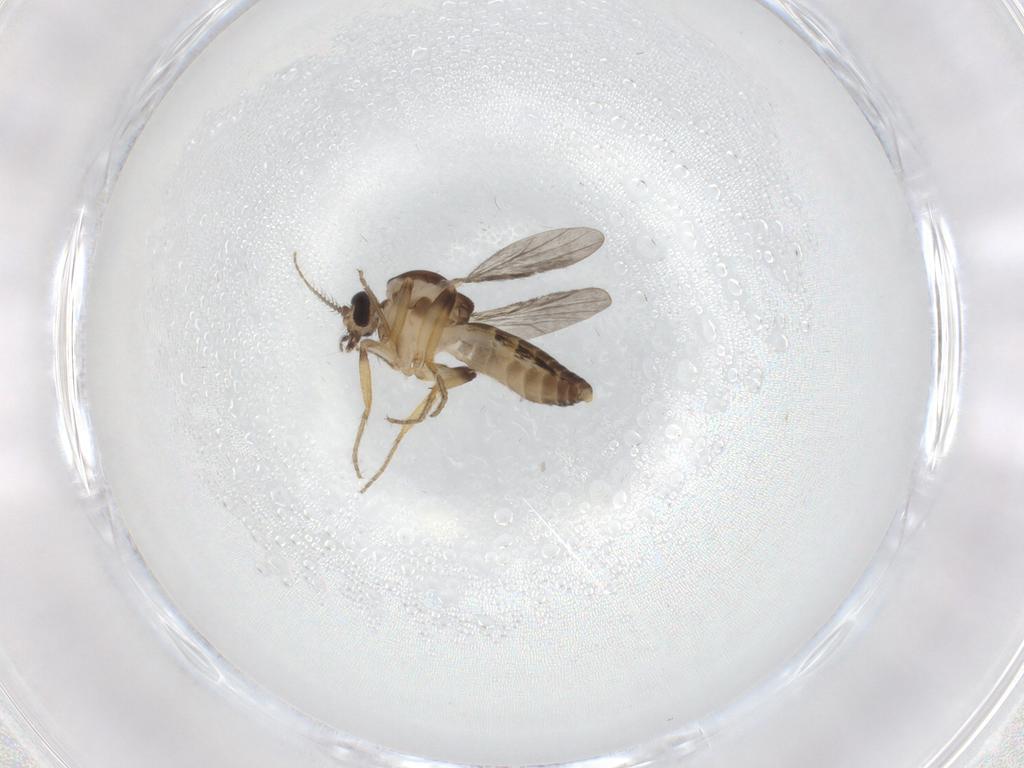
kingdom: Animalia
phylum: Arthropoda
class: Insecta
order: Diptera
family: Ceratopogonidae
